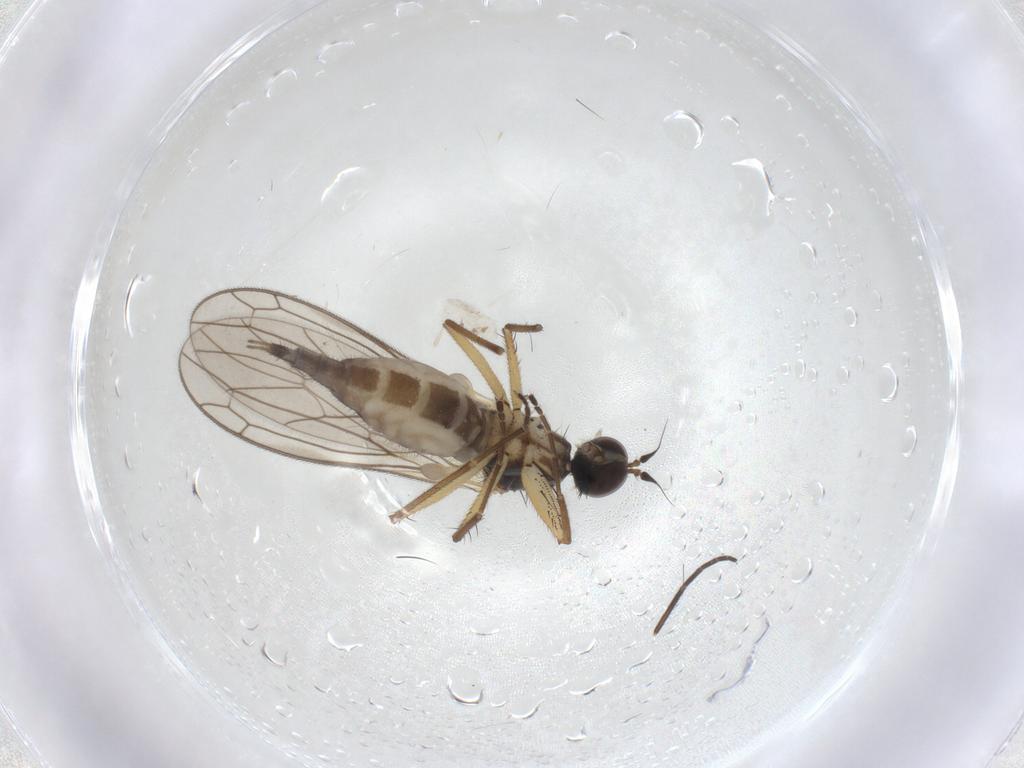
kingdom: Animalia
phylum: Arthropoda
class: Insecta
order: Diptera
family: Empididae
